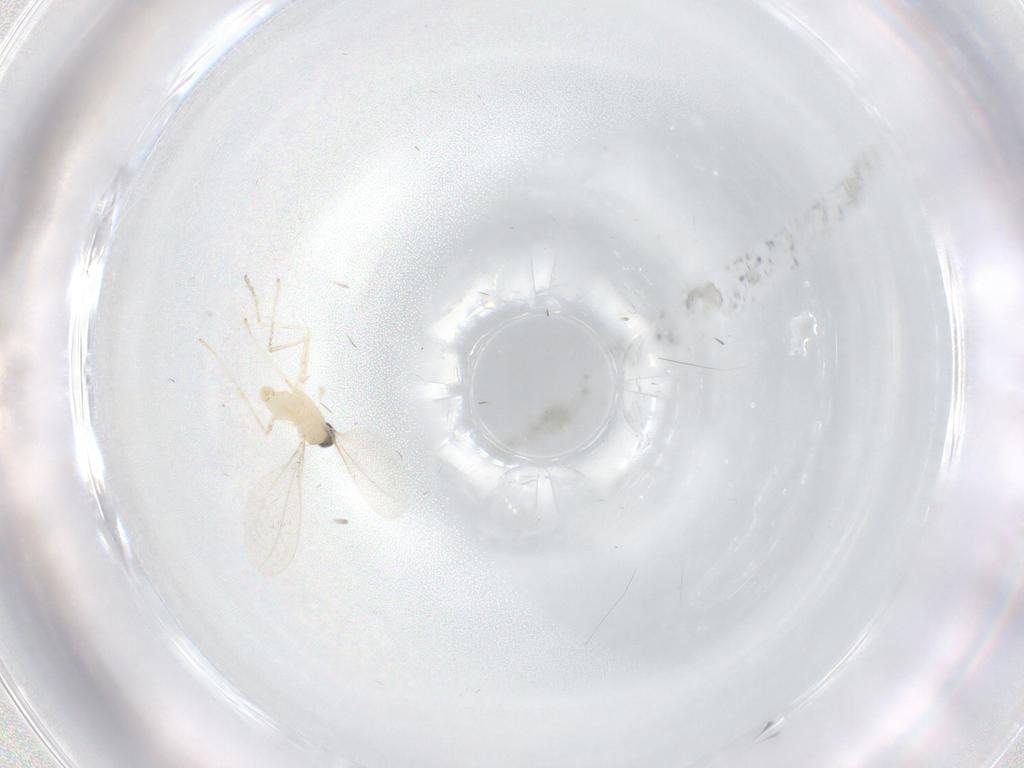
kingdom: Animalia
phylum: Arthropoda
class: Insecta
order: Diptera
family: Cecidomyiidae
